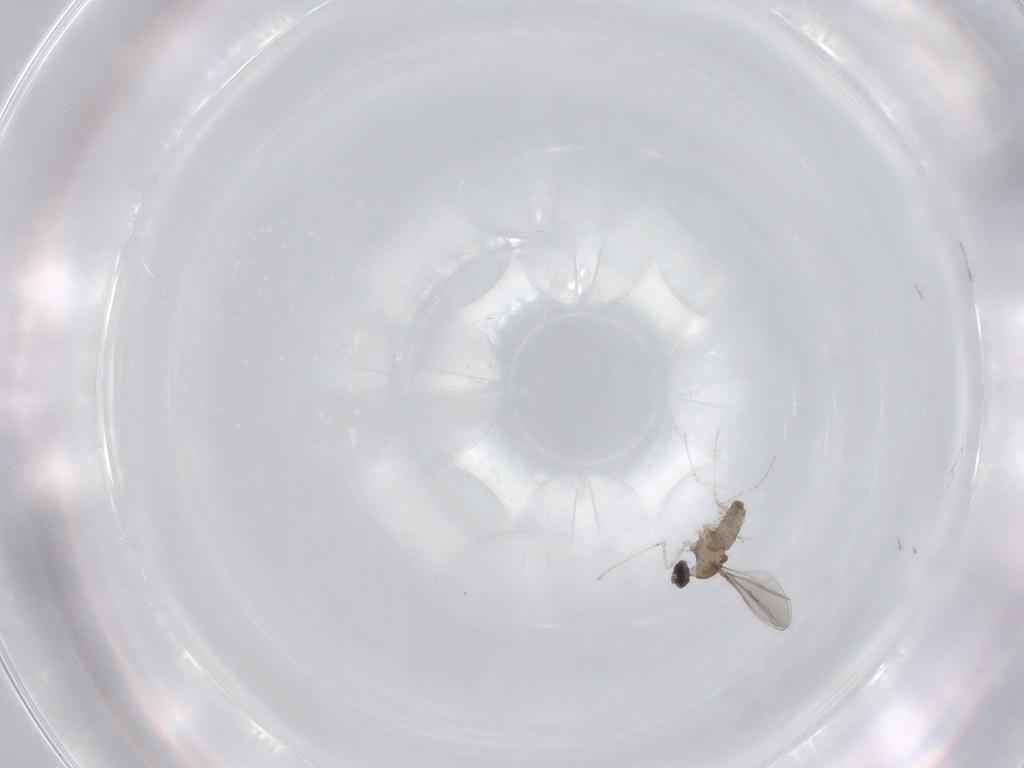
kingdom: Animalia
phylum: Arthropoda
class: Insecta
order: Diptera
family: Cecidomyiidae
